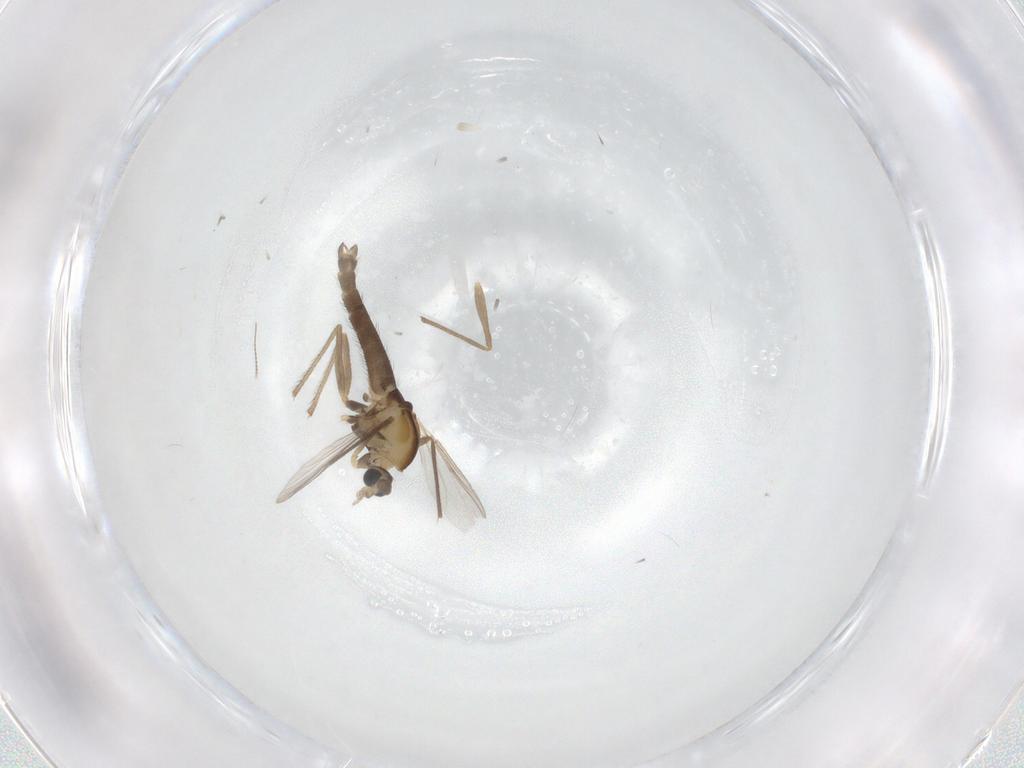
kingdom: Animalia
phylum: Arthropoda
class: Insecta
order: Diptera
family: Chironomidae
